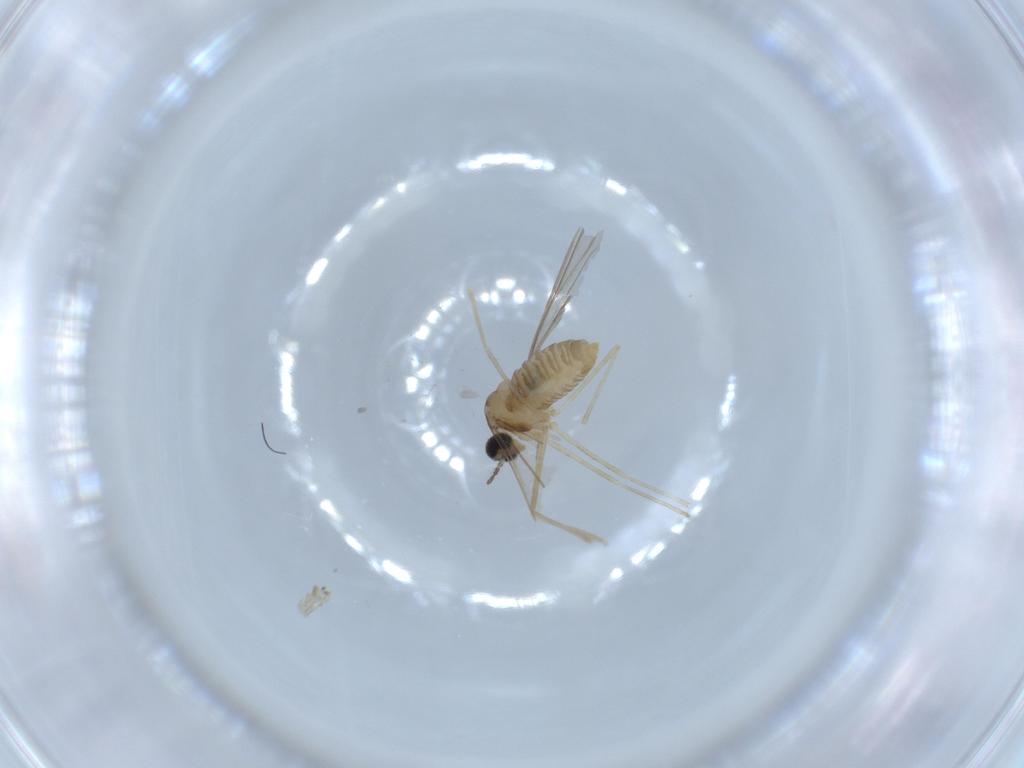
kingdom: Animalia
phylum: Arthropoda
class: Insecta
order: Diptera
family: Cecidomyiidae
